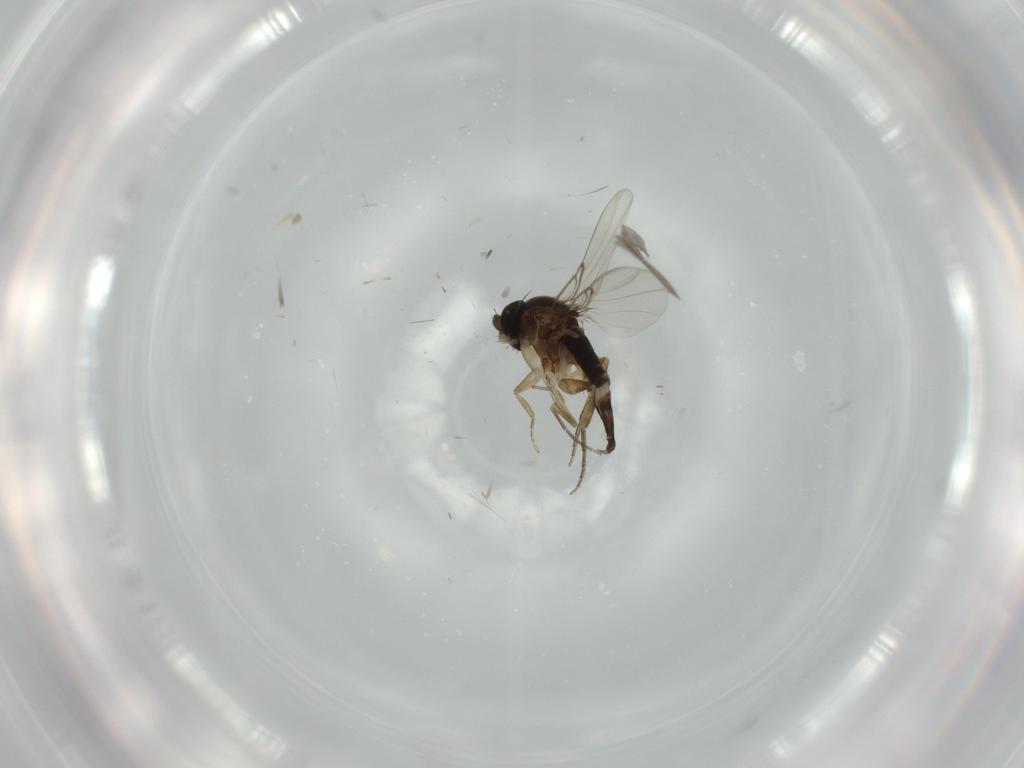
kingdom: Animalia
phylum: Arthropoda
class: Insecta
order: Diptera
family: Phoridae
